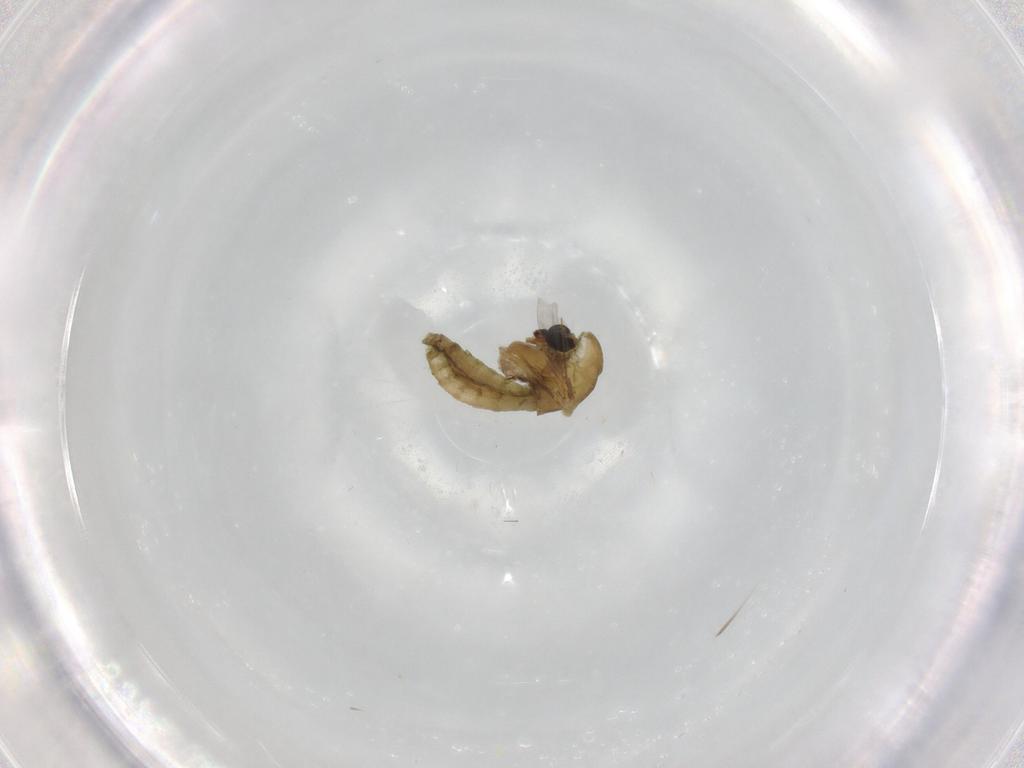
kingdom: Animalia
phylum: Arthropoda
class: Insecta
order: Diptera
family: Chironomidae
